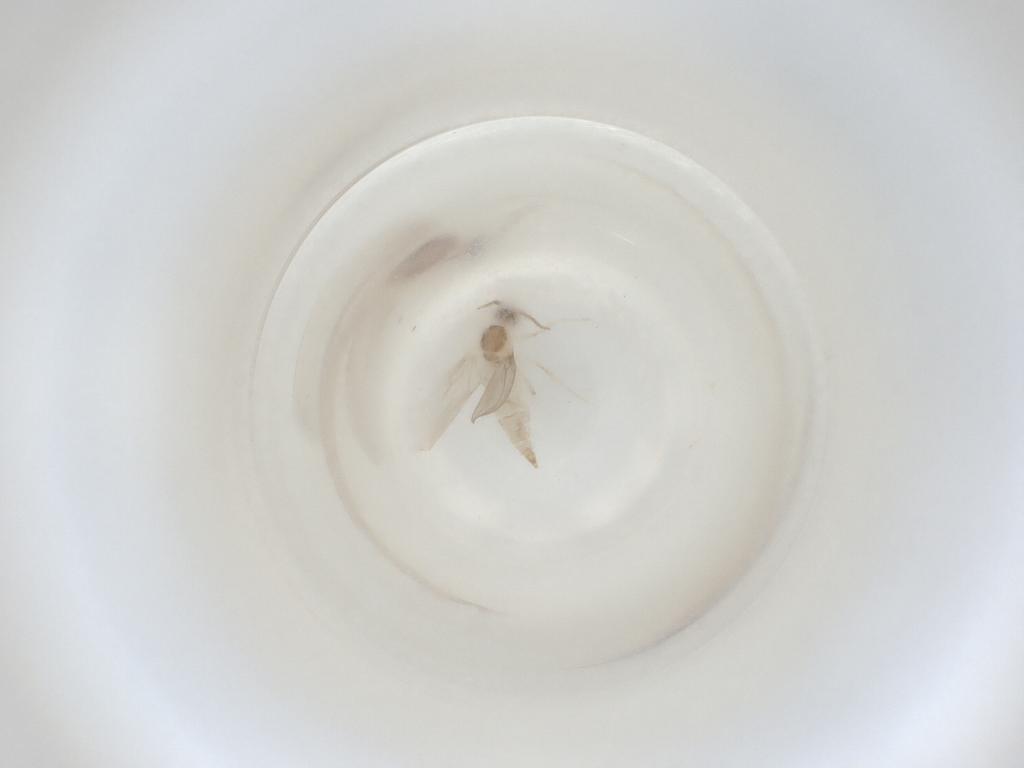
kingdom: Animalia
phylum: Arthropoda
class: Insecta
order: Diptera
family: Cecidomyiidae
